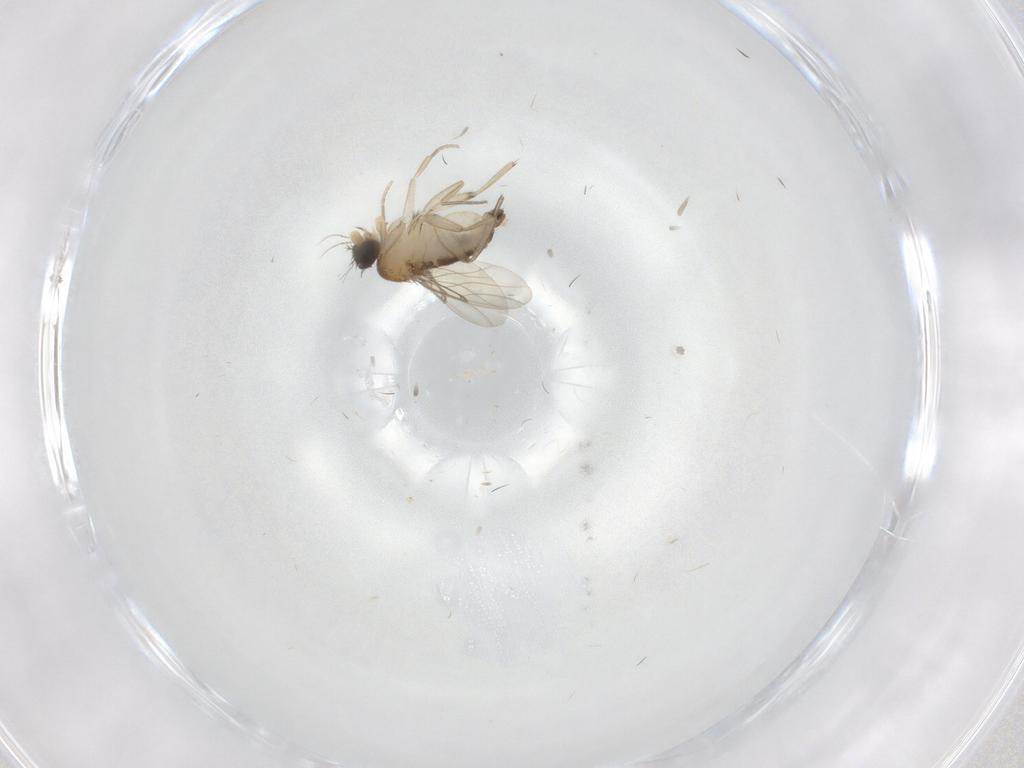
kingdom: Animalia
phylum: Arthropoda
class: Insecta
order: Diptera
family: Phoridae
